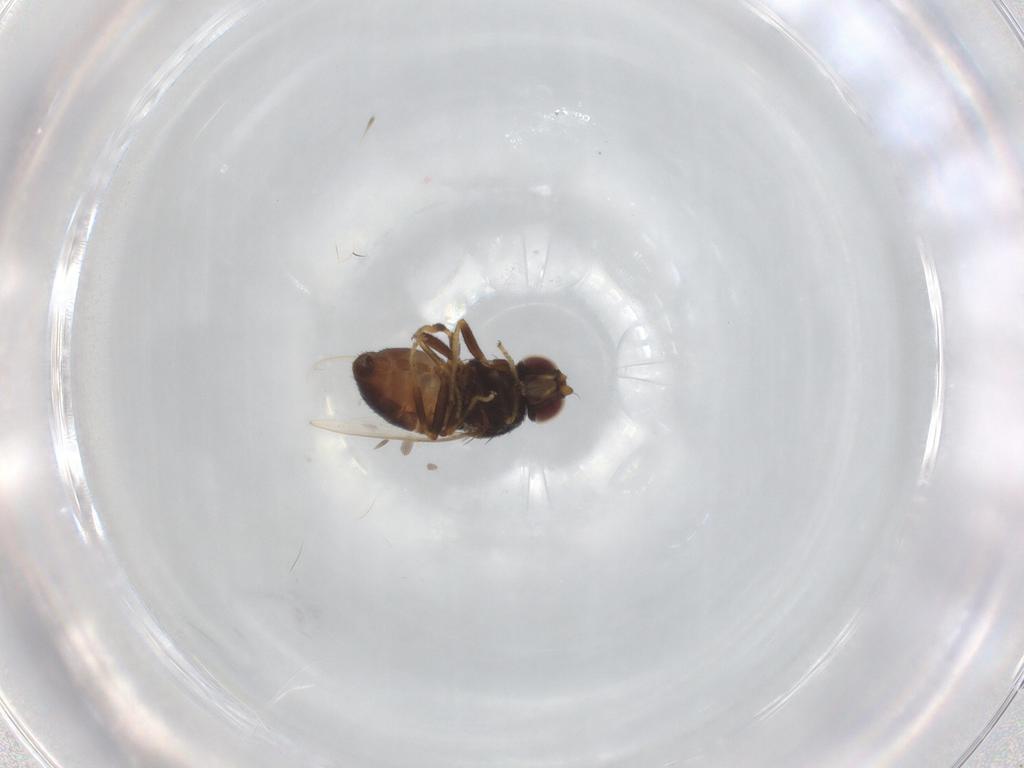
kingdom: Animalia
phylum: Arthropoda
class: Insecta
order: Diptera
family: Chloropidae
